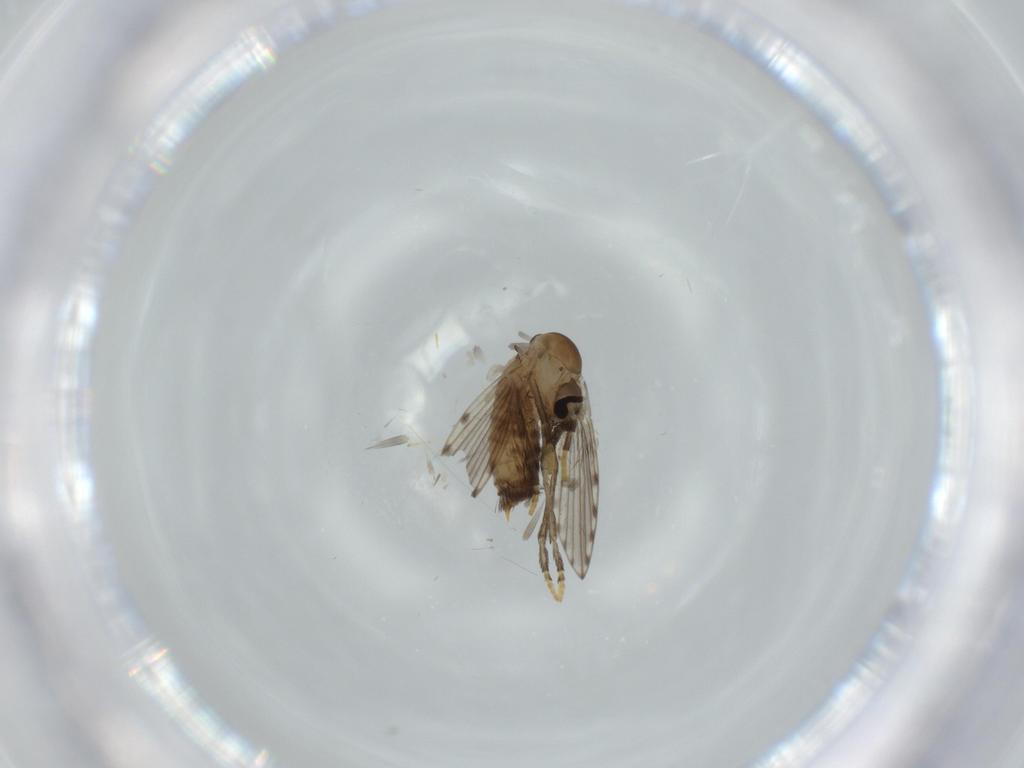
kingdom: Animalia
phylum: Arthropoda
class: Insecta
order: Diptera
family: Psychodidae
